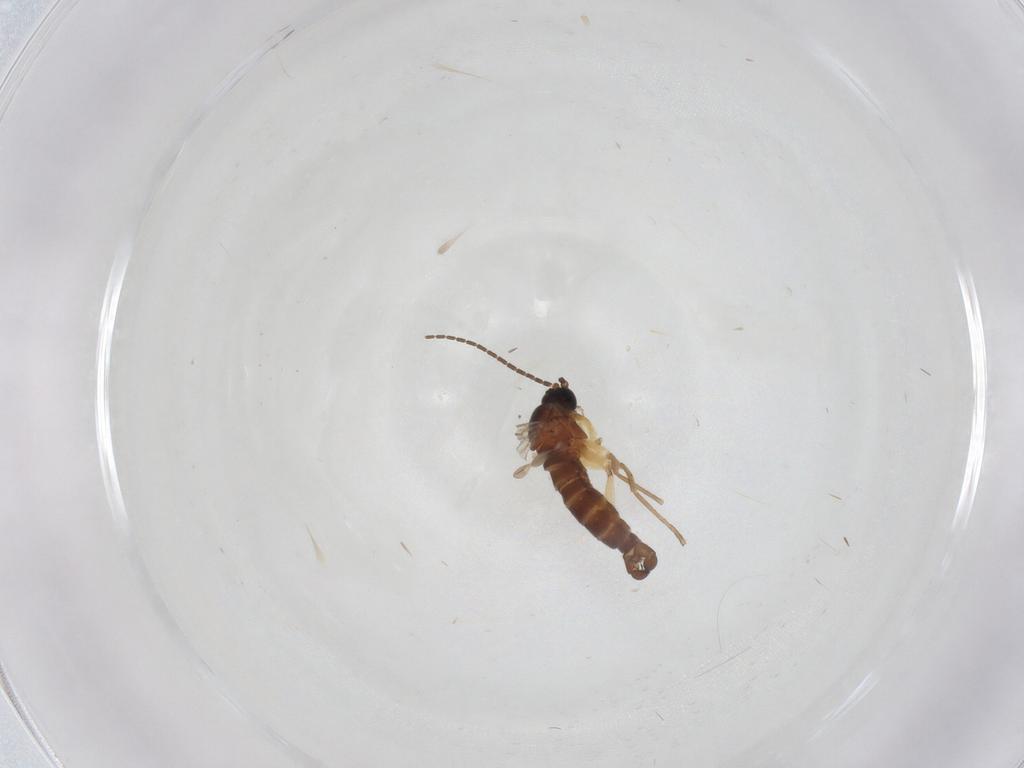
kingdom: Animalia
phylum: Arthropoda
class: Insecta
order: Diptera
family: Sciaridae
